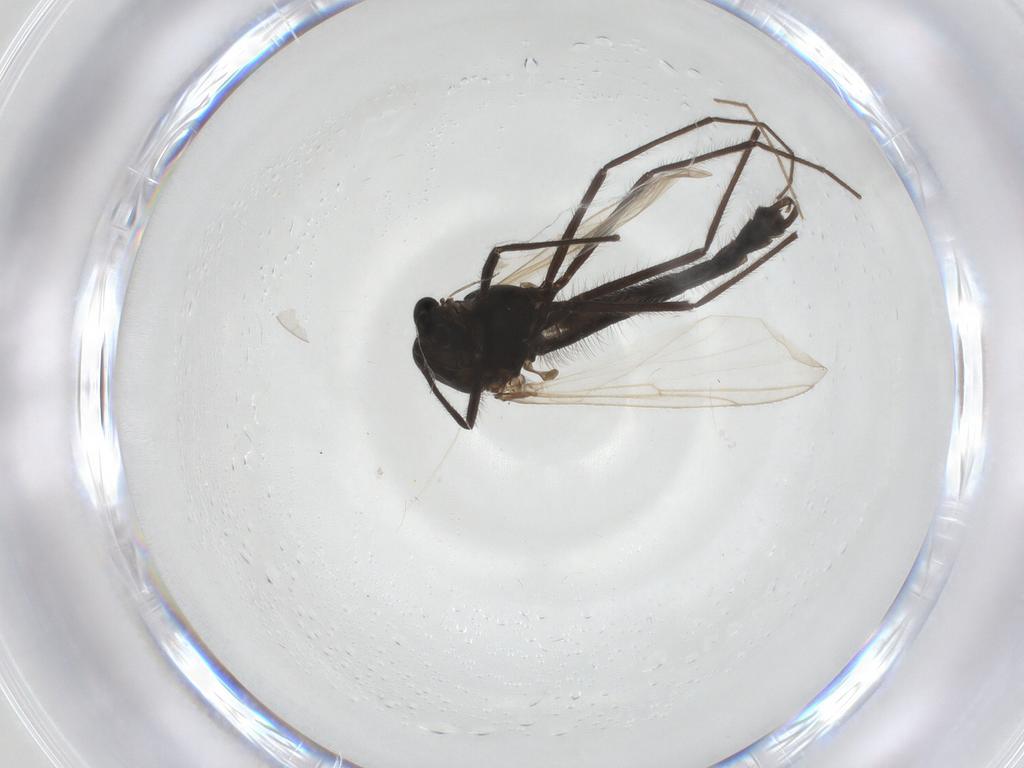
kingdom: Animalia
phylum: Arthropoda
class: Insecta
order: Diptera
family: Chironomidae
